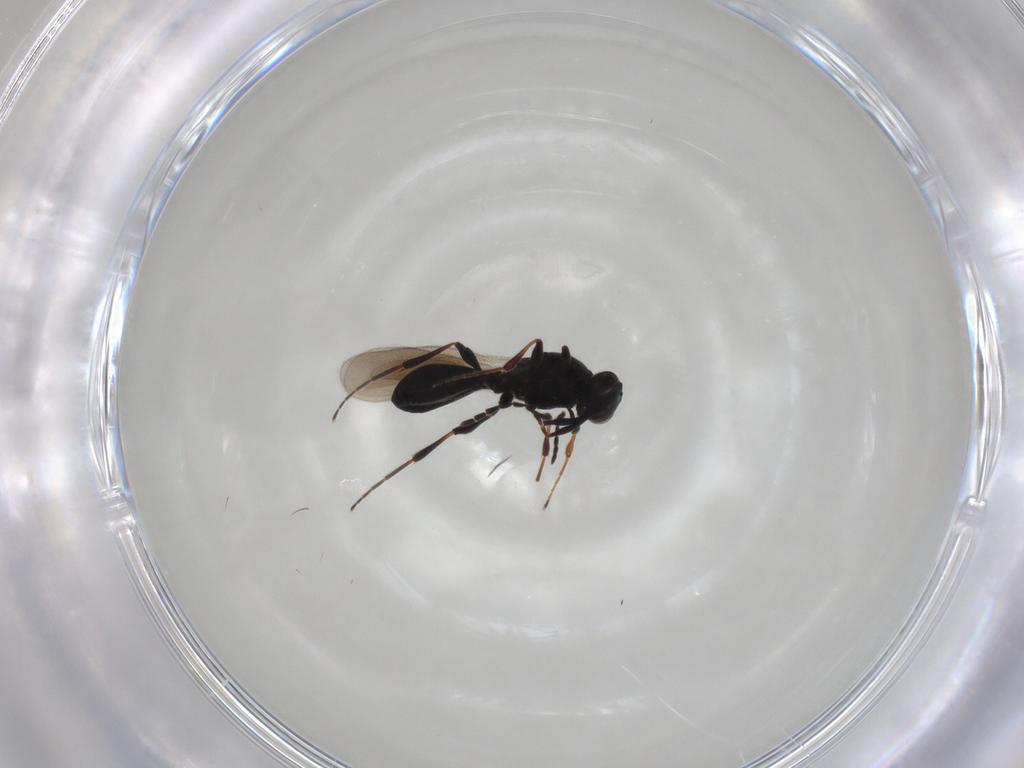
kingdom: Animalia
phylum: Arthropoda
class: Insecta
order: Hymenoptera
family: Platygastridae
